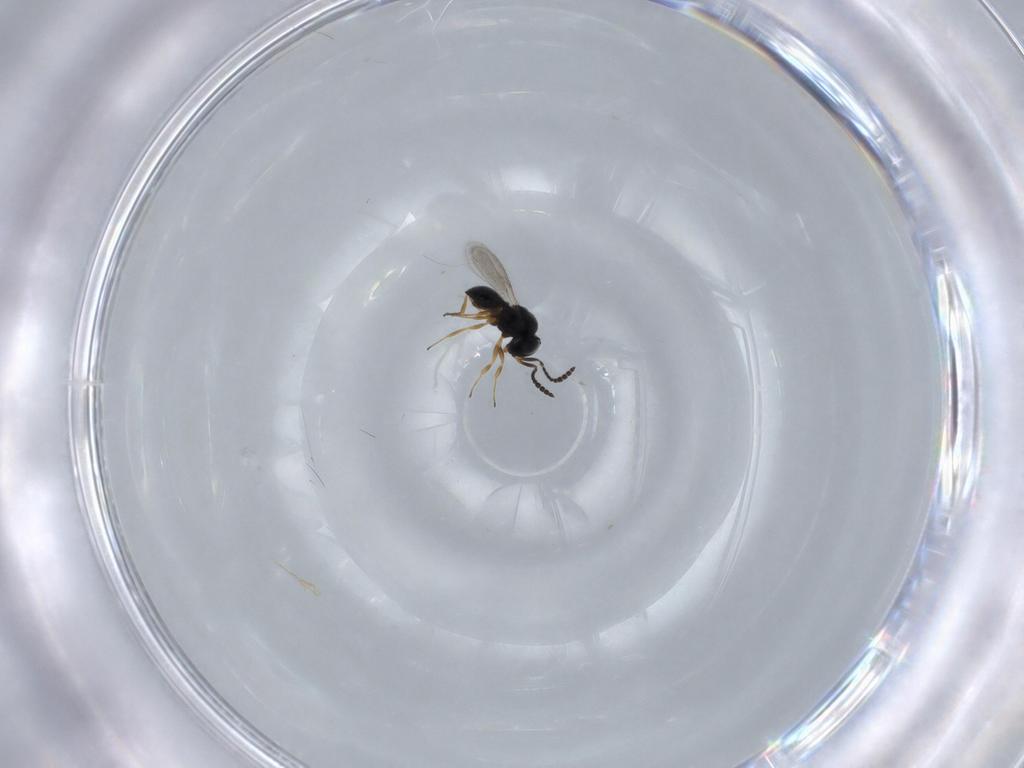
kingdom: Animalia
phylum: Arthropoda
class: Insecta
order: Hymenoptera
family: Scelionidae
